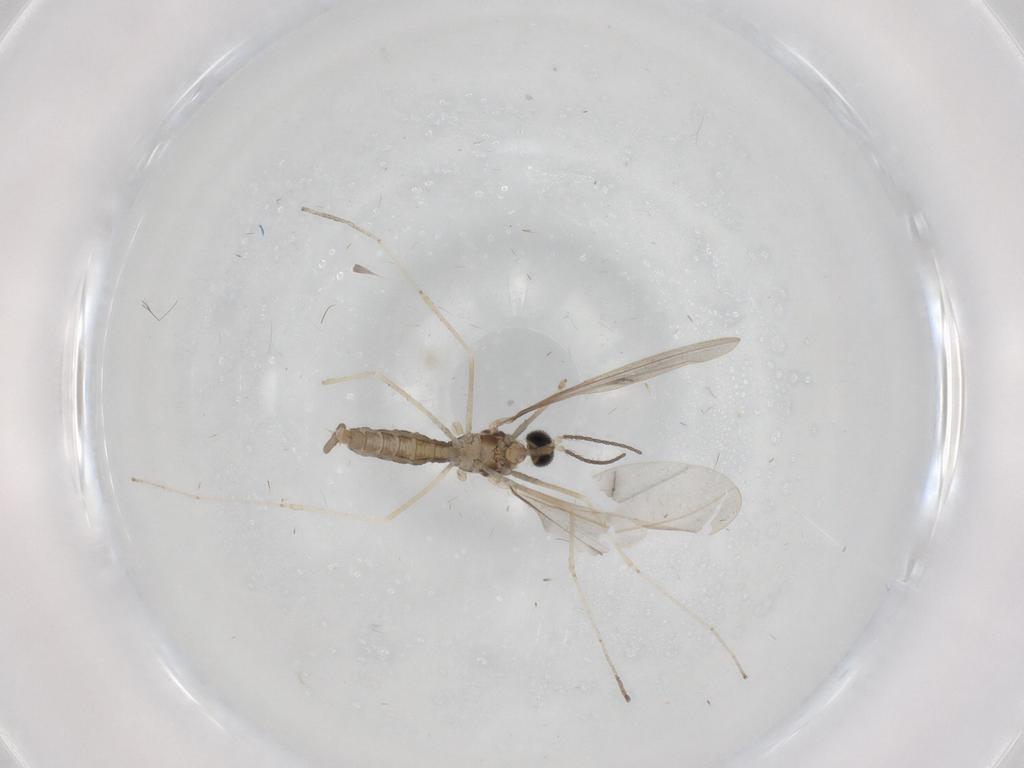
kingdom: Animalia
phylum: Arthropoda
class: Insecta
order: Diptera
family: Cecidomyiidae
